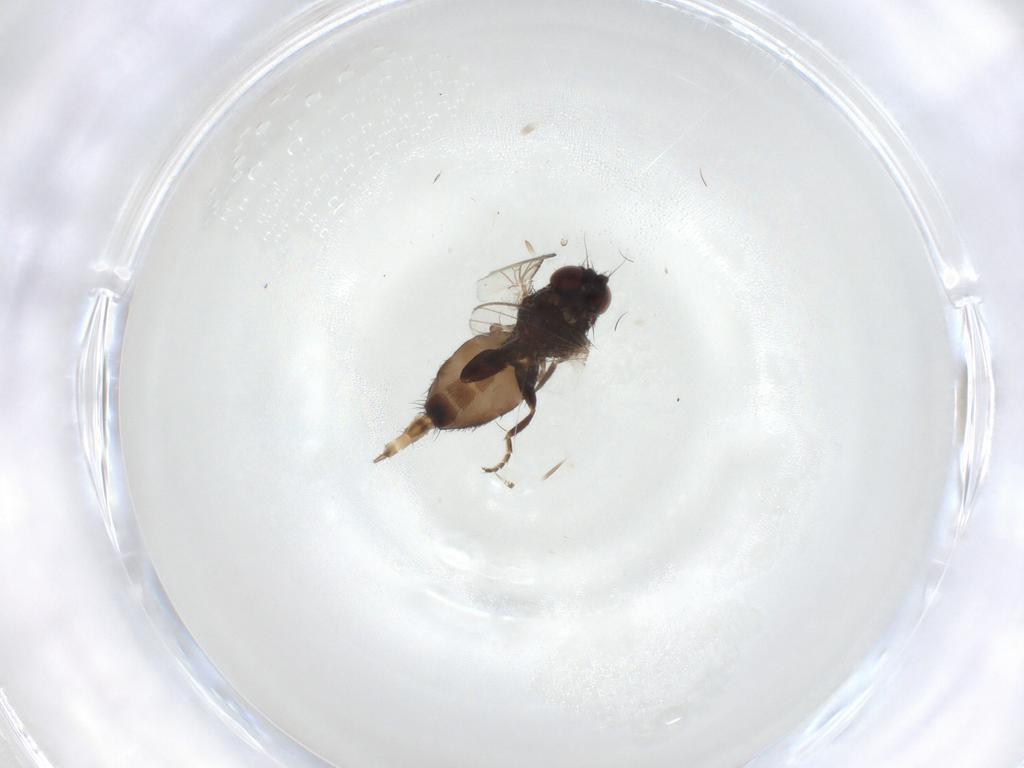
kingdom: Animalia
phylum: Arthropoda
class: Insecta
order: Diptera
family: Milichiidae
